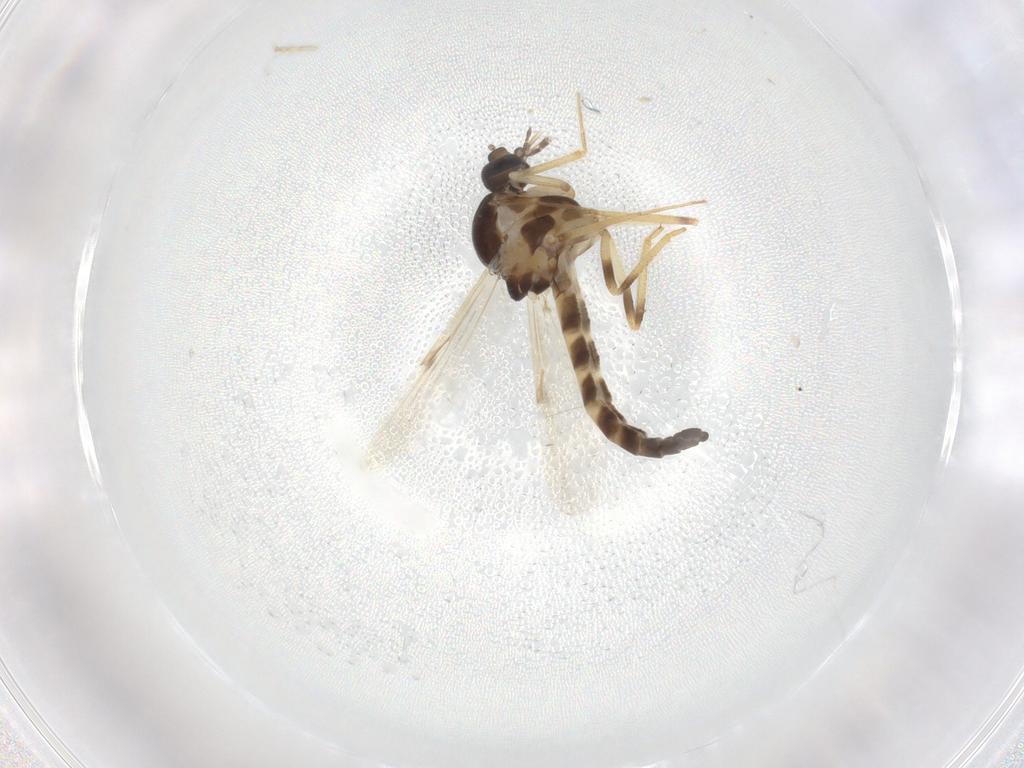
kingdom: Animalia
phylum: Arthropoda
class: Insecta
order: Diptera
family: Ceratopogonidae
